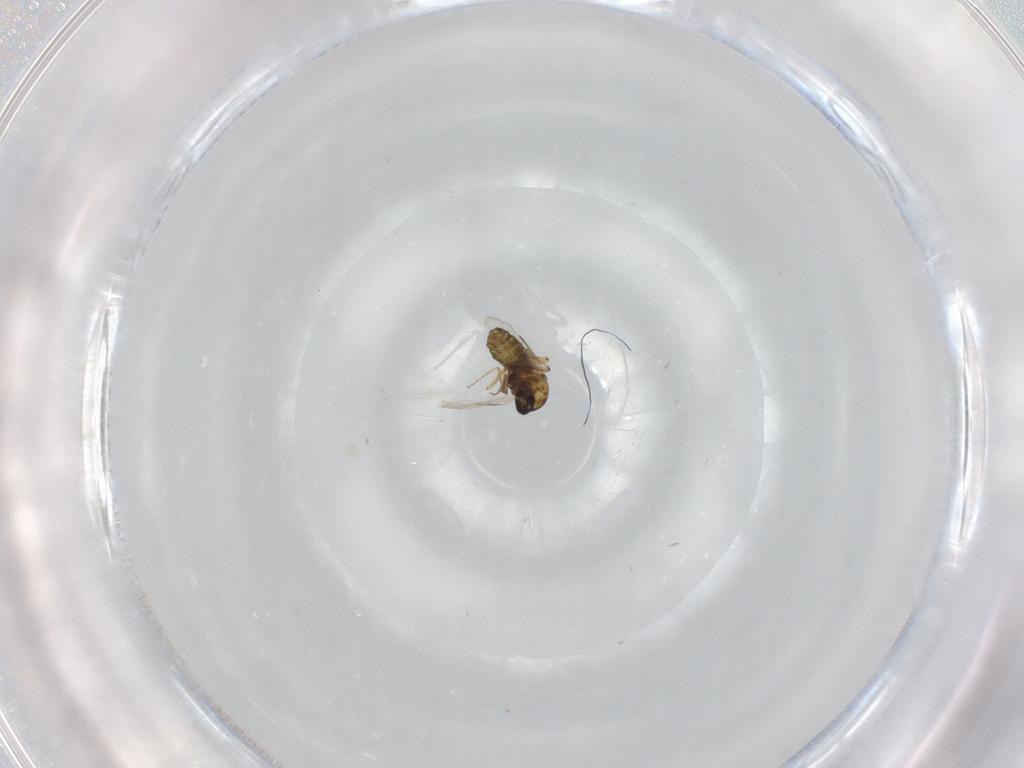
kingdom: Animalia
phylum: Arthropoda
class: Insecta
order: Diptera
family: Ceratopogonidae
